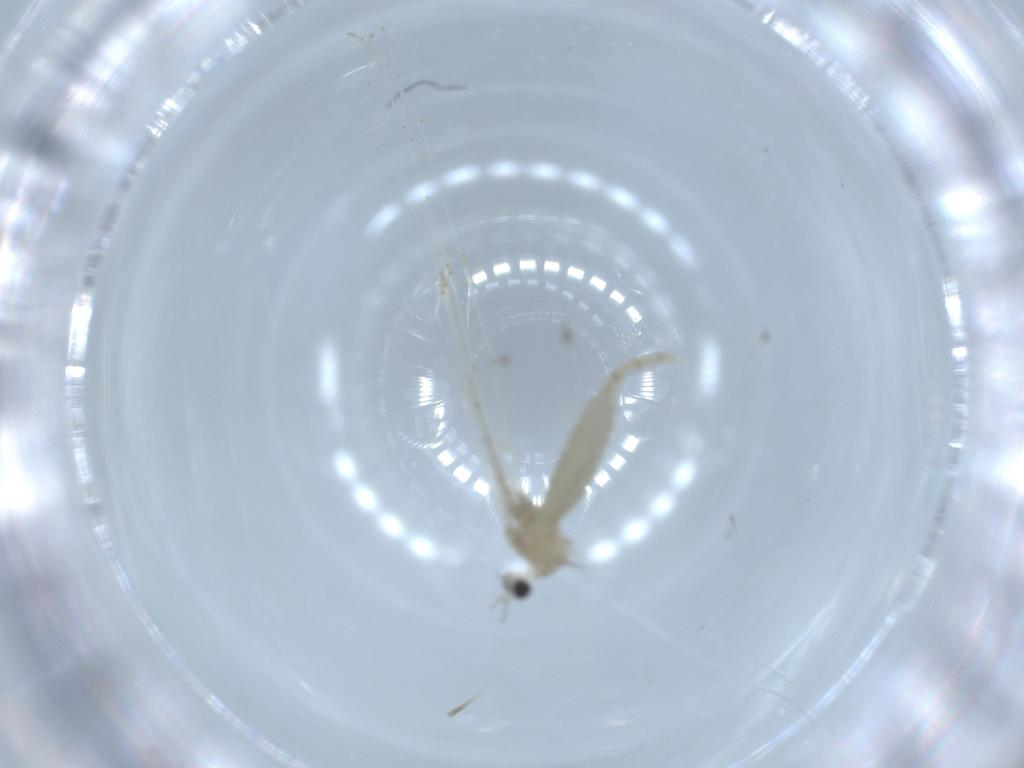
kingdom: Animalia
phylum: Arthropoda
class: Insecta
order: Diptera
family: Cecidomyiidae
